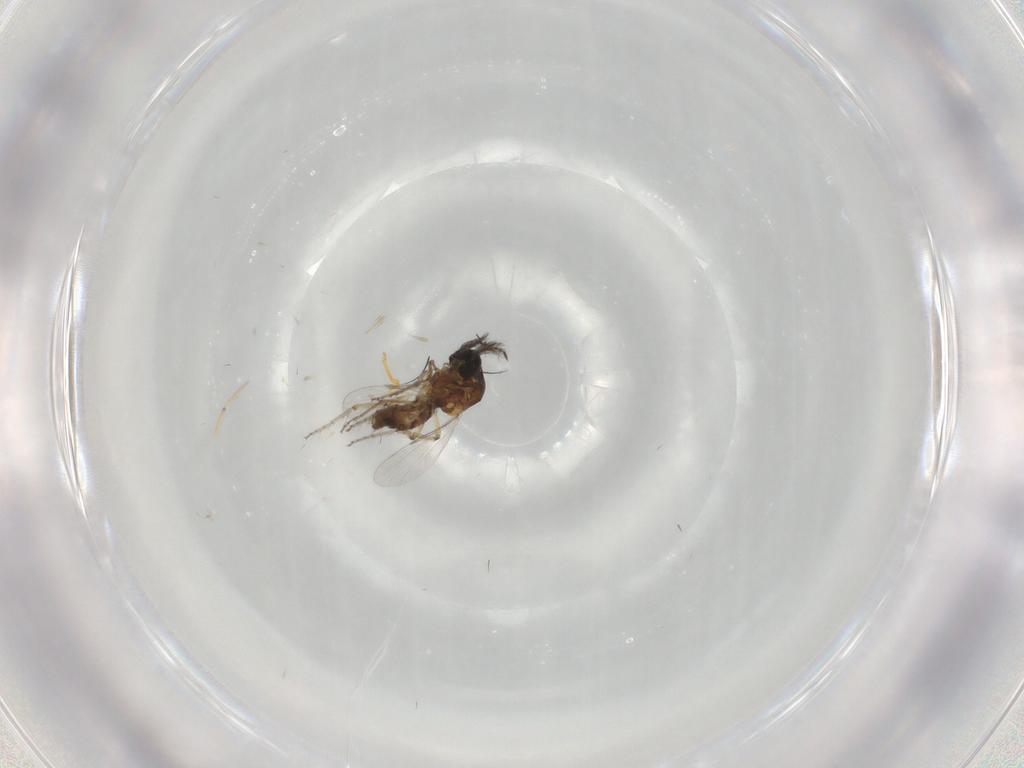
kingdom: Animalia
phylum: Arthropoda
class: Insecta
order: Diptera
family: Ceratopogonidae
